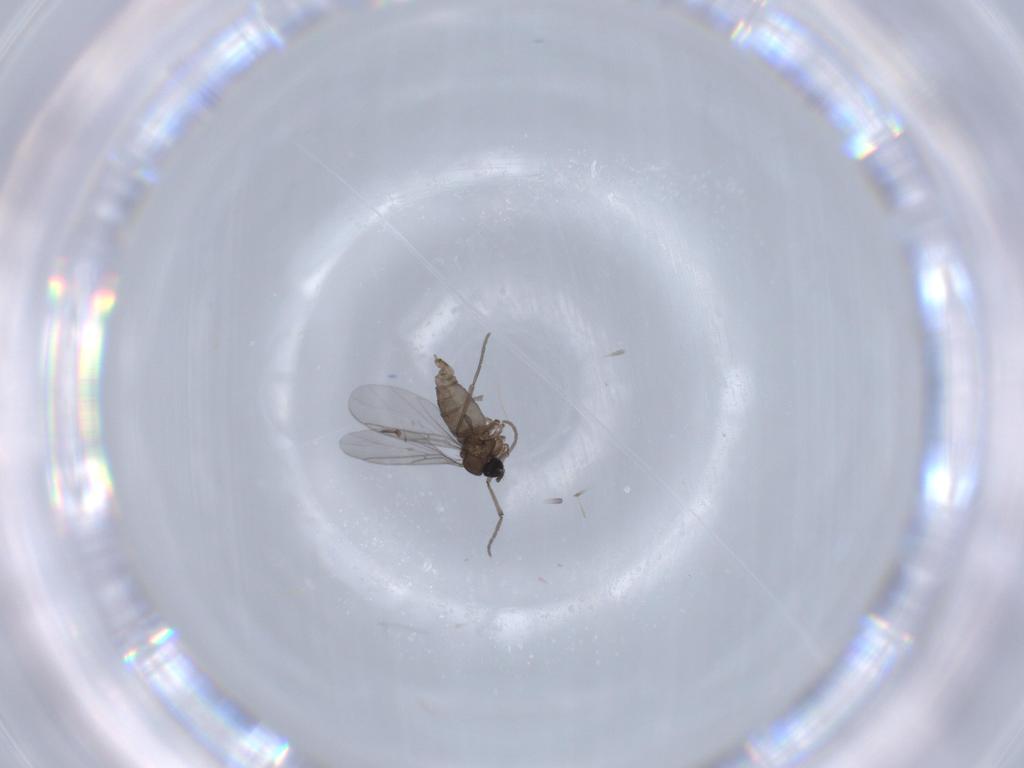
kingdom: Animalia
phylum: Arthropoda
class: Insecta
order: Diptera
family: Sciaridae
